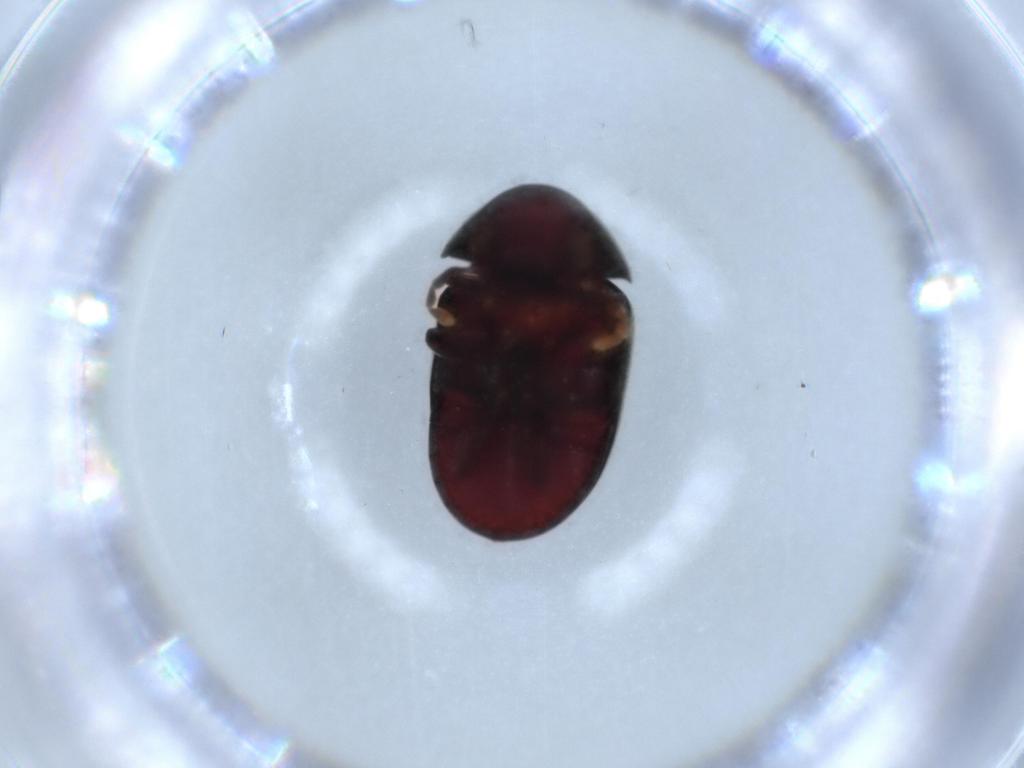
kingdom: Animalia
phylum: Arthropoda
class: Insecta
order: Coleoptera
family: Ptinidae
